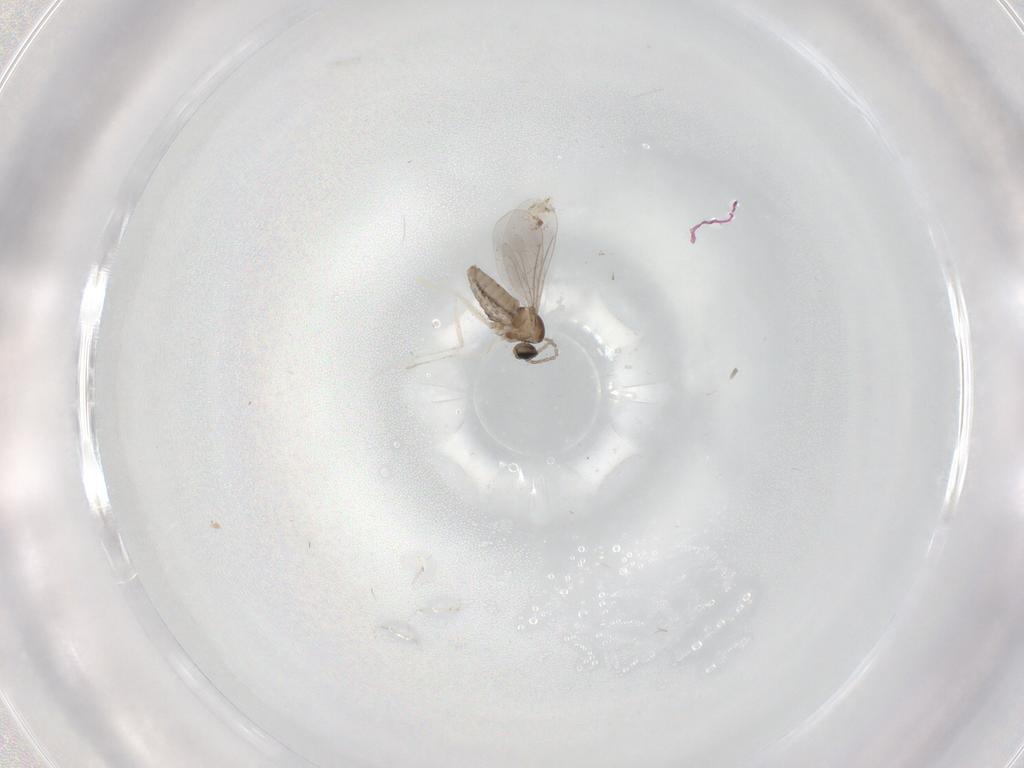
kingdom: Animalia
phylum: Arthropoda
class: Insecta
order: Diptera
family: Cecidomyiidae
